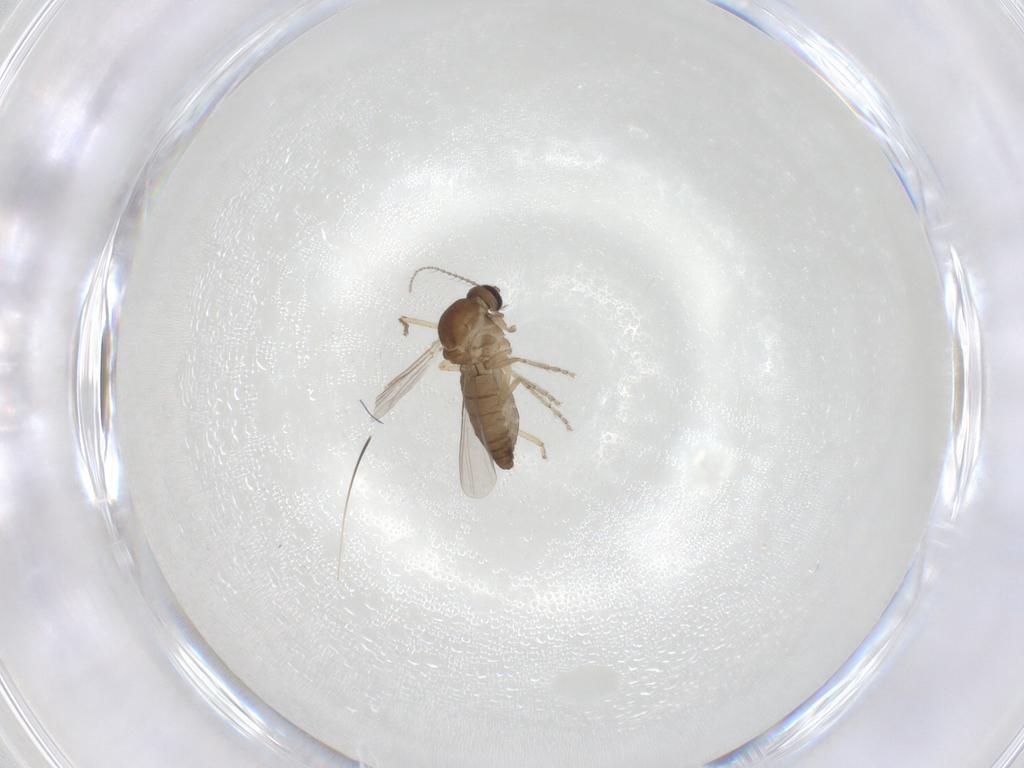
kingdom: Animalia
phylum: Arthropoda
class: Insecta
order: Diptera
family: Ceratopogonidae
